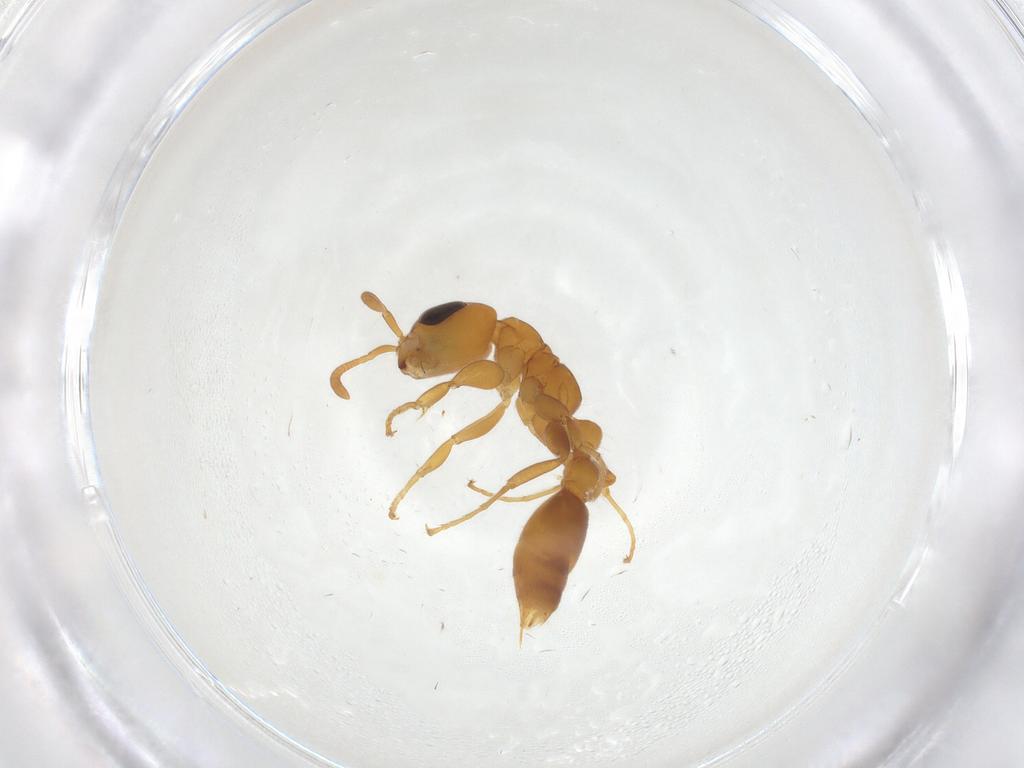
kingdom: Animalia
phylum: Arthropoda
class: Insecta
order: Hymenoptera
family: Formicidae
